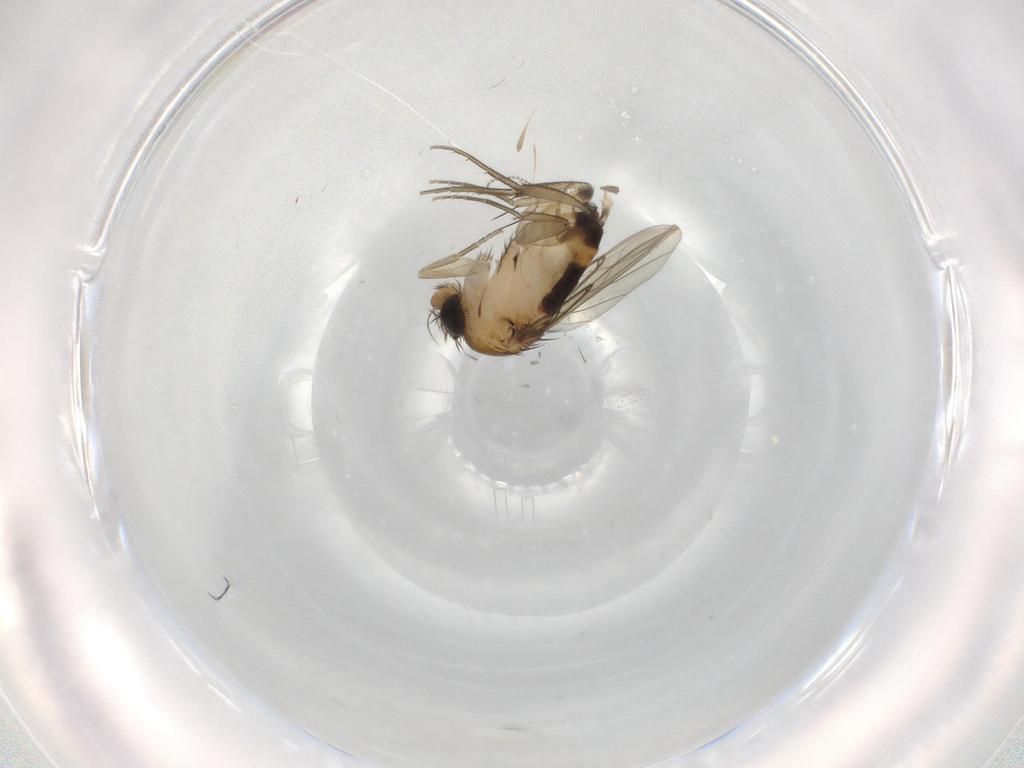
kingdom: Animalia
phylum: Arthropoda
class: Insecta
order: Diptera
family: Phoridae
